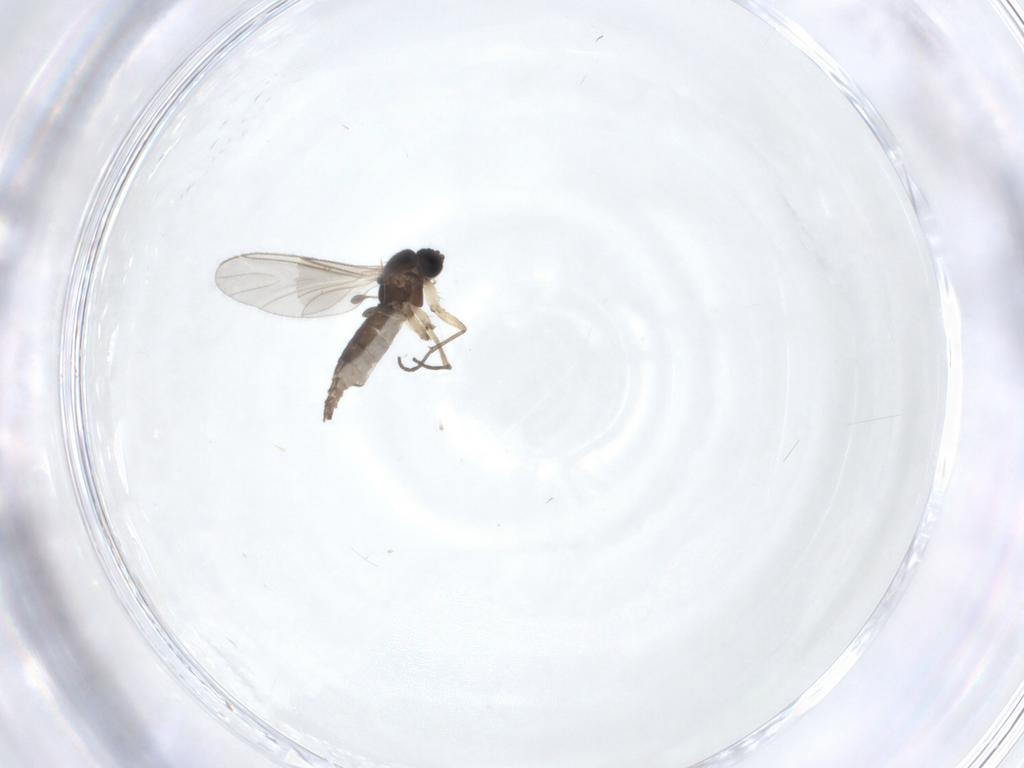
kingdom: Animalia
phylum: Arthropoda
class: Insecta
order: Diptera
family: Sciaridae
